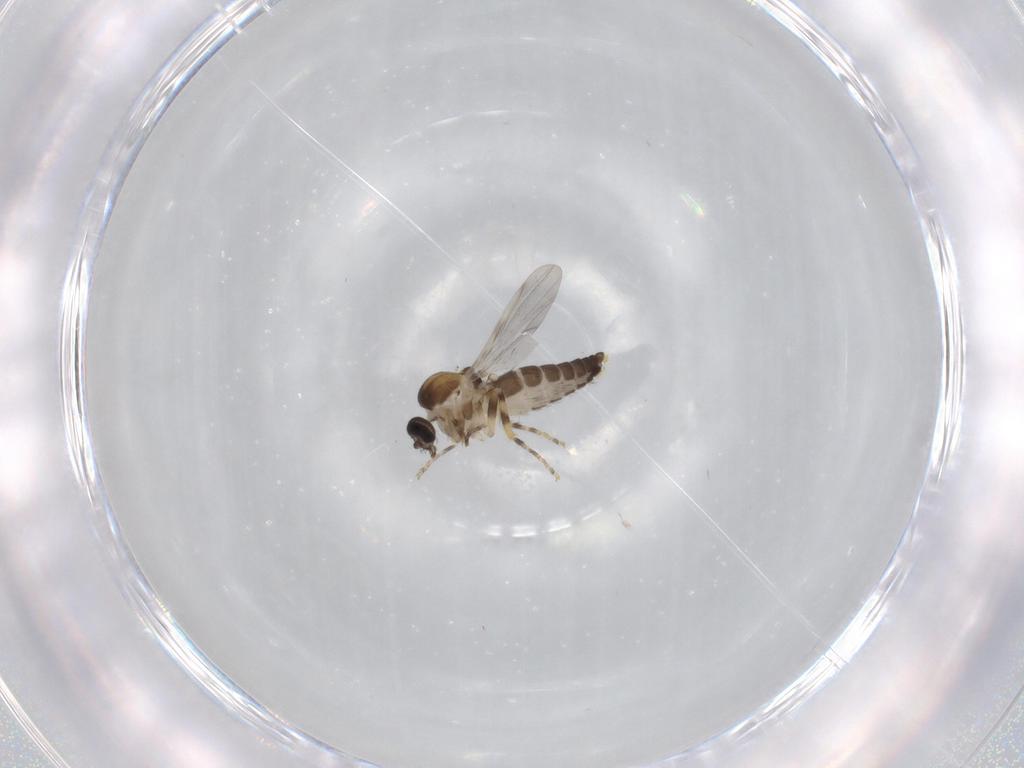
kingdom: Animalia
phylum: Arthropoda
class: Insecta
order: Diptera
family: Ceratopogonidae
